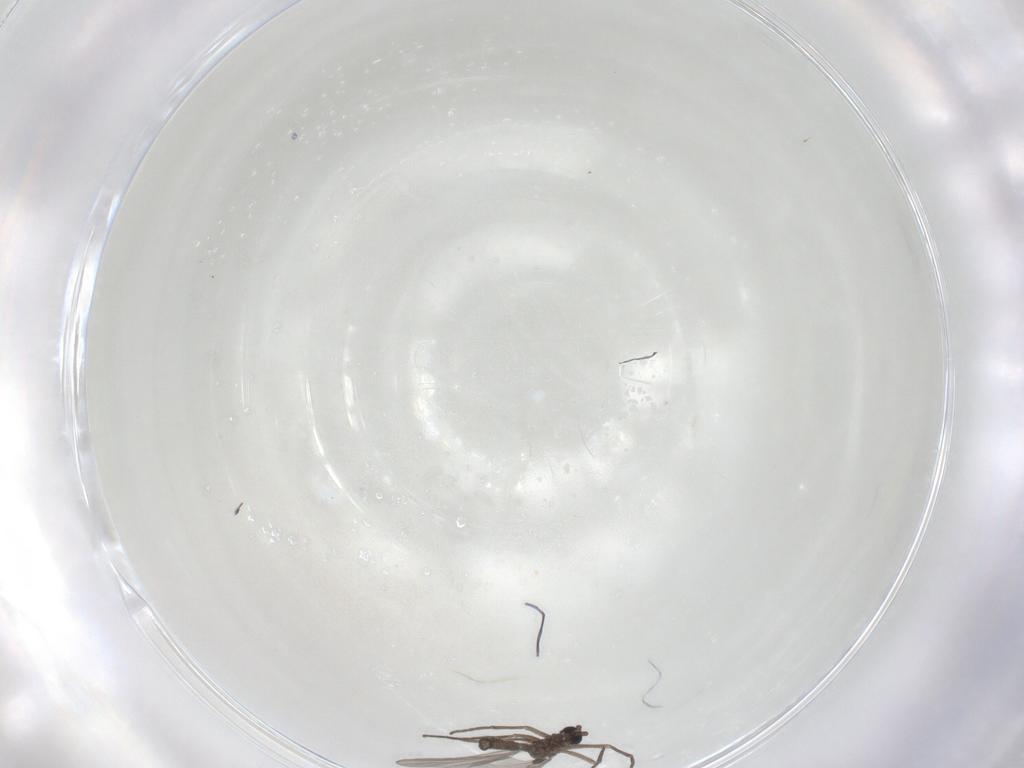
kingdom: Animalia
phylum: Arthropoda
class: Insecta
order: Diptera
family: Sciaridae
